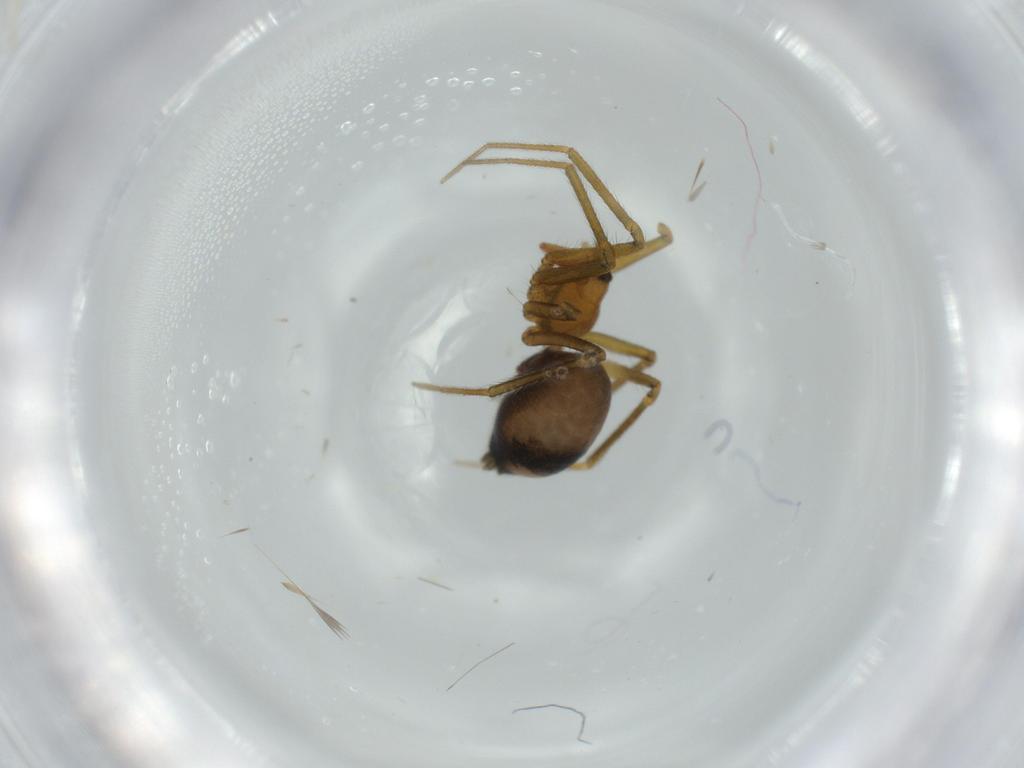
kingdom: Animalia
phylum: Arthropoda
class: Arachnida
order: Araneae
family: Linyphiidae
